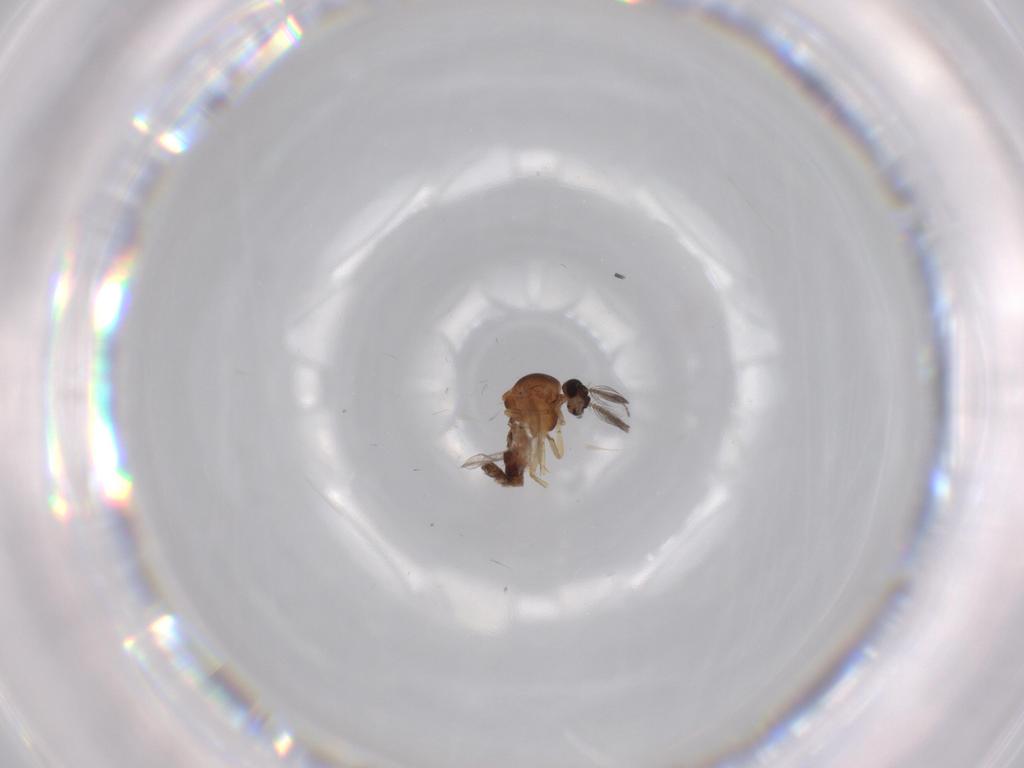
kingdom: Animalia
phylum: Arthropoda
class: Insecta
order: Diptera
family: Ceratopogonidae
